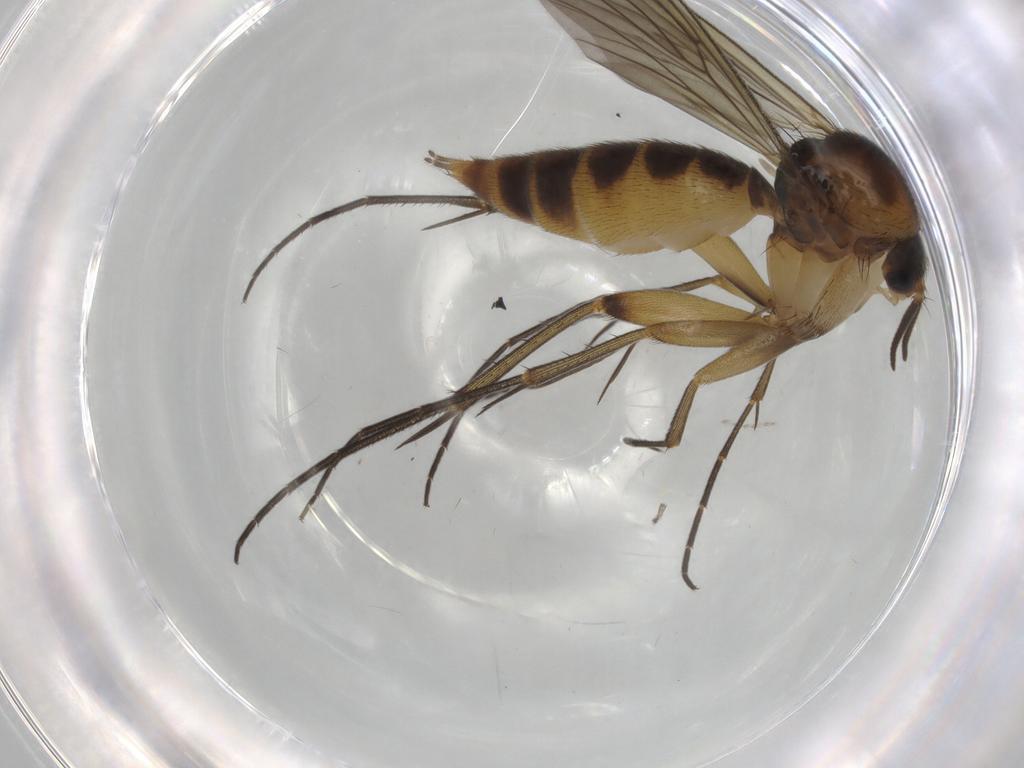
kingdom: Animalia
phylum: Arthropoda
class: Insecta
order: Diptera
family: Mycetophilidae
